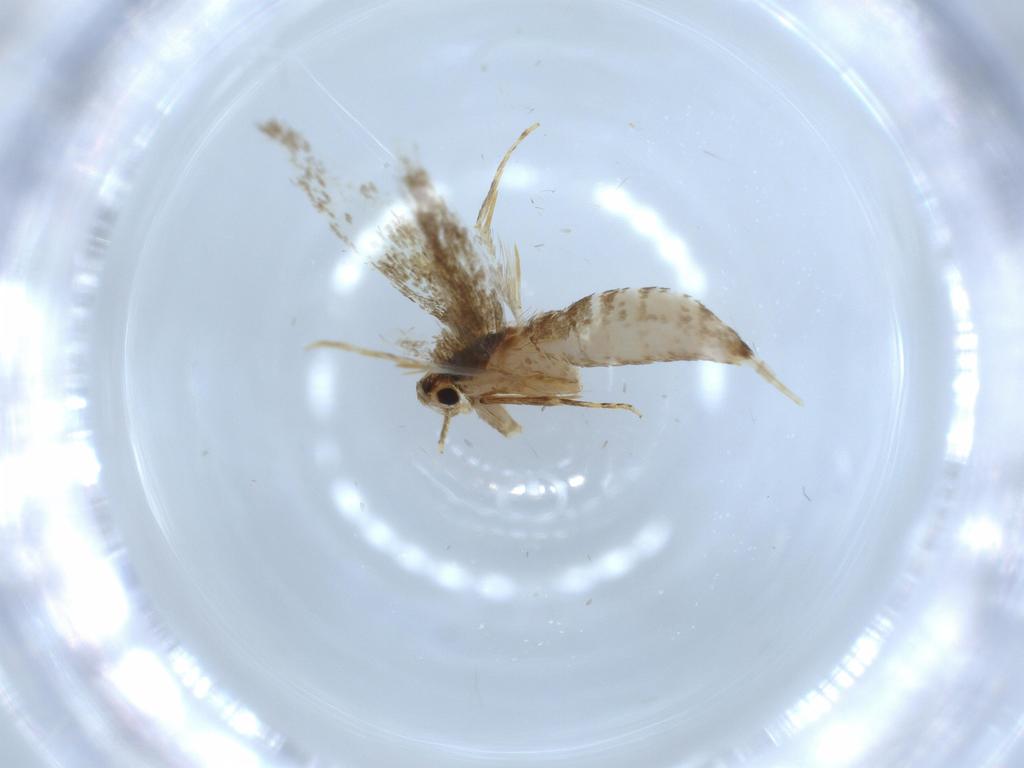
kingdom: Animalia
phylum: Arthropoda
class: Insecta
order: Lepidoptera
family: Tineidae
